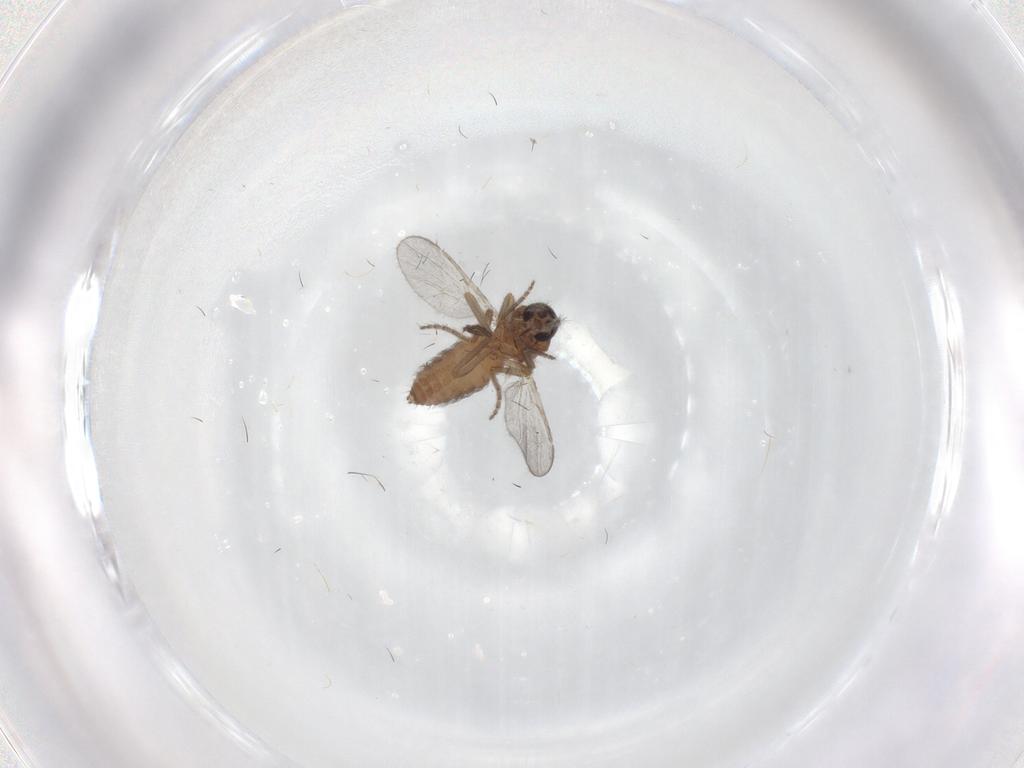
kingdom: Animalia
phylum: Arthropoda
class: Insecta
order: Diptera
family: Ceratopogonidae
